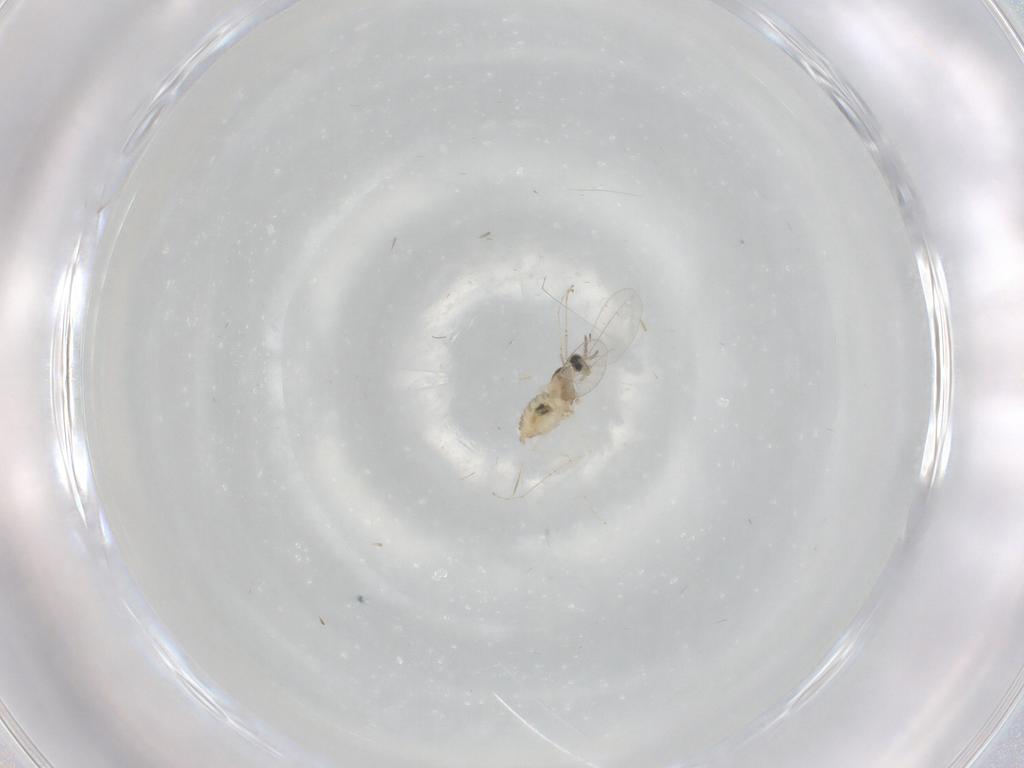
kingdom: Animalia
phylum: Arthropoda
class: Insecta
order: Diptera
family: Cecidomyiidae
